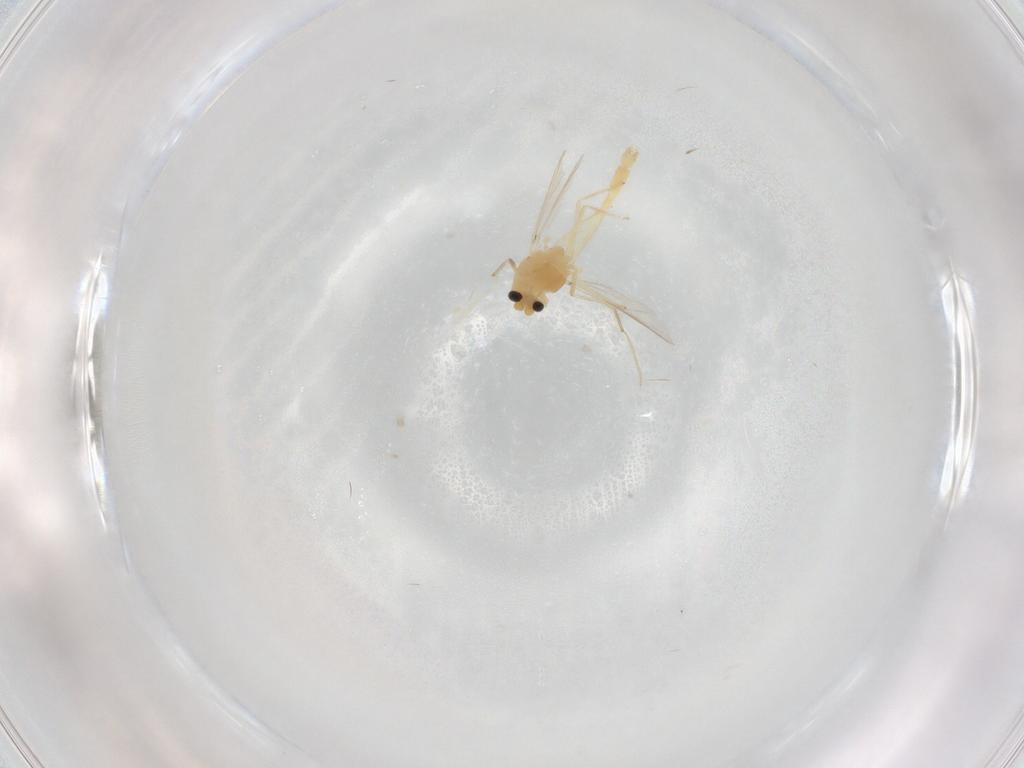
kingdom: Animalia
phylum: Arthropoda
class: Insecta
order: Diptera
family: Chironomidae
